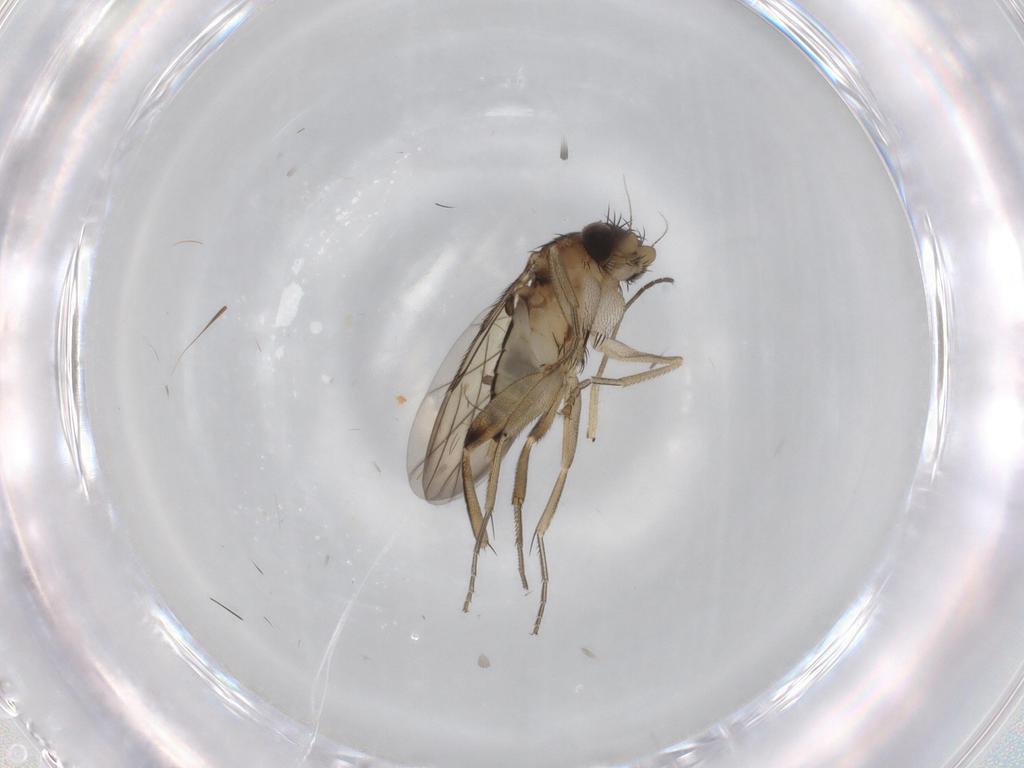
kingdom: Animalia
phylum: Arthropoda
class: Insecta
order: Diptera
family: Phoridae
